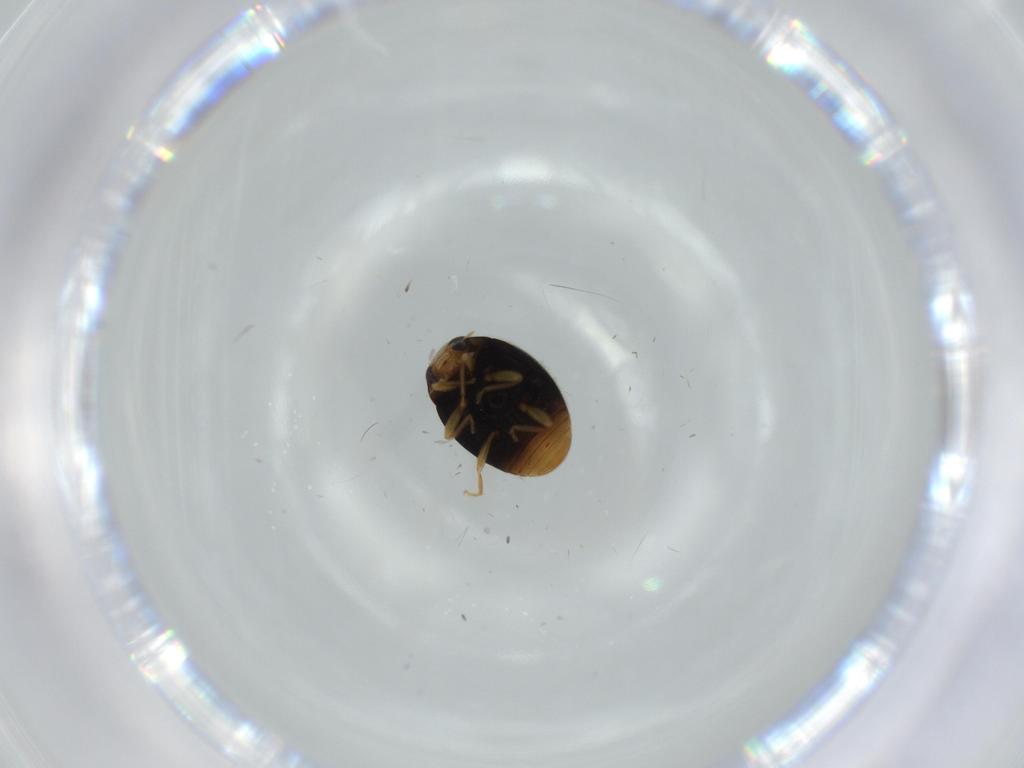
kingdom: Animalia
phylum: Arthropoda
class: Insecta
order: Coleoptera
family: Coccinellidae
